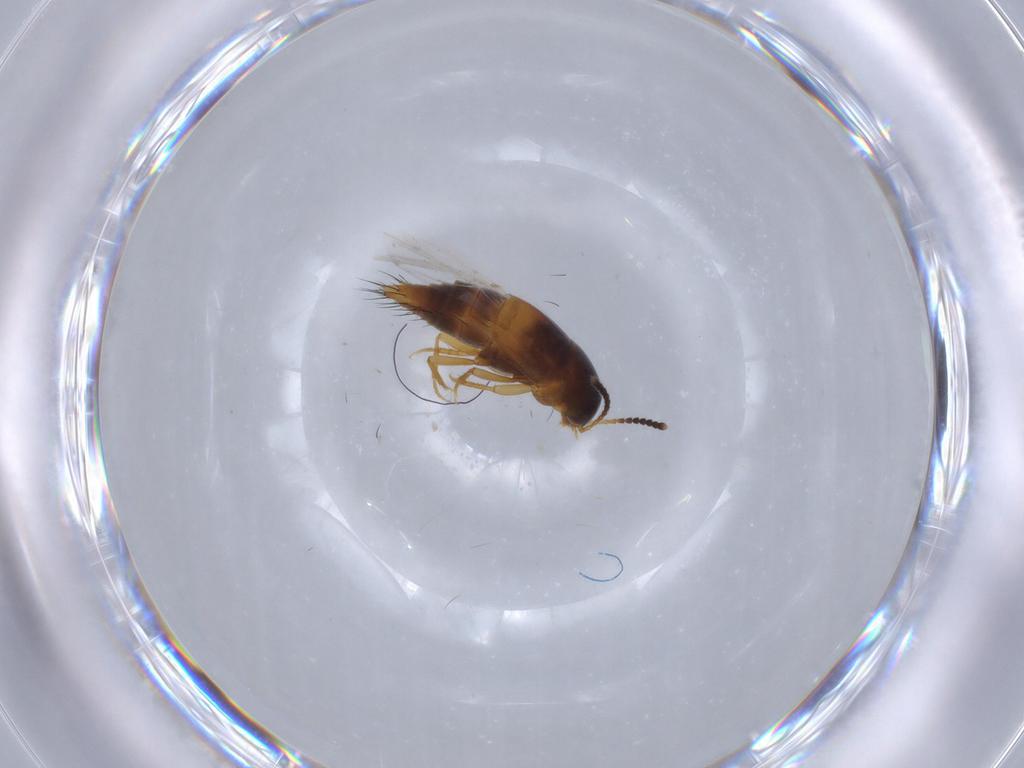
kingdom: Animalia
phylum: Arthropoda
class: Insecta
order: Coleoptera
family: Staphylinidae
